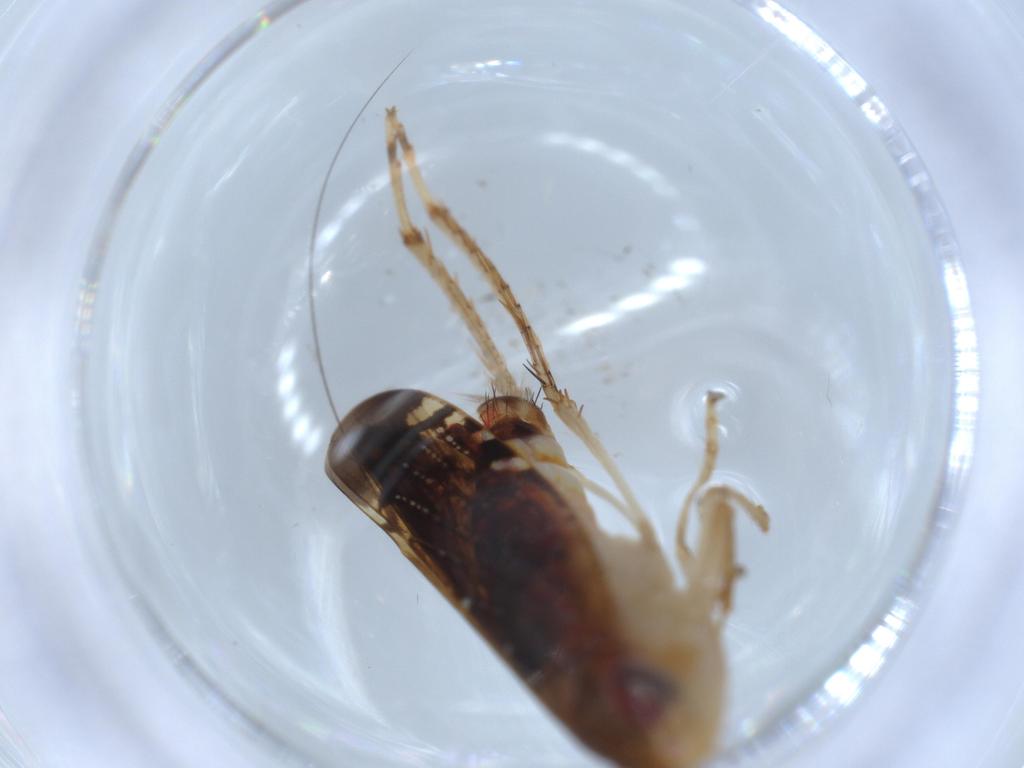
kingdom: Animalia
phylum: Arthropoda
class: Insecta
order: Hemiptera
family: Cicadellidae
